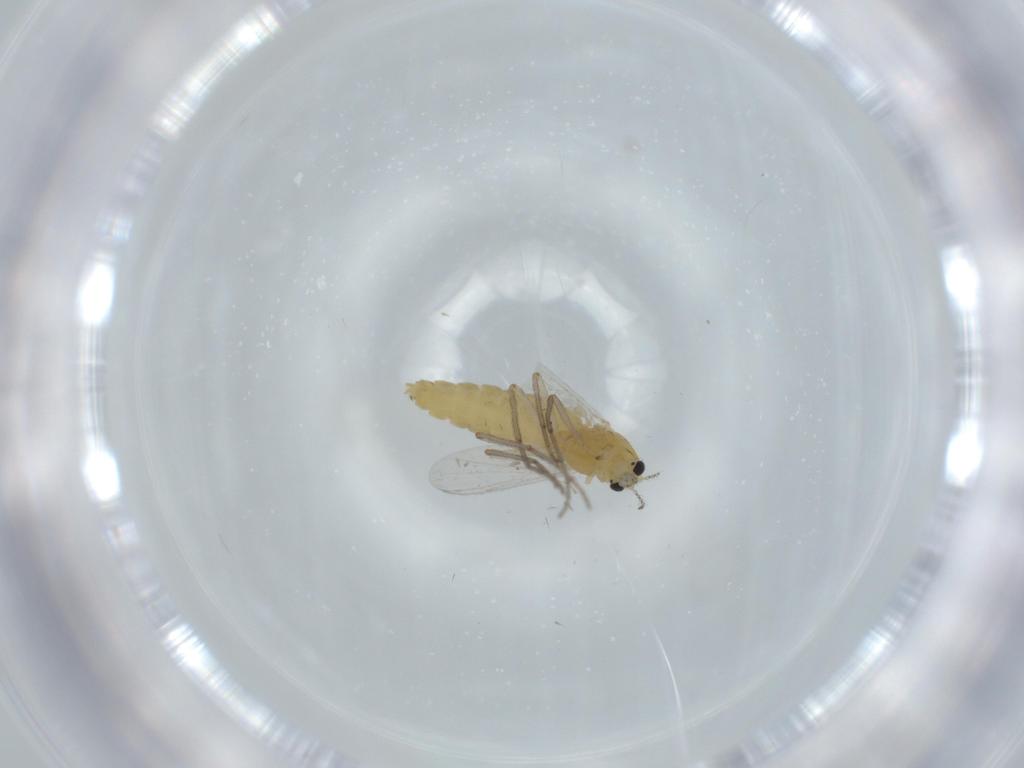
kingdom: Animalia
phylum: Arthropoda
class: Insecta
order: Diptera
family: Chironomidae
